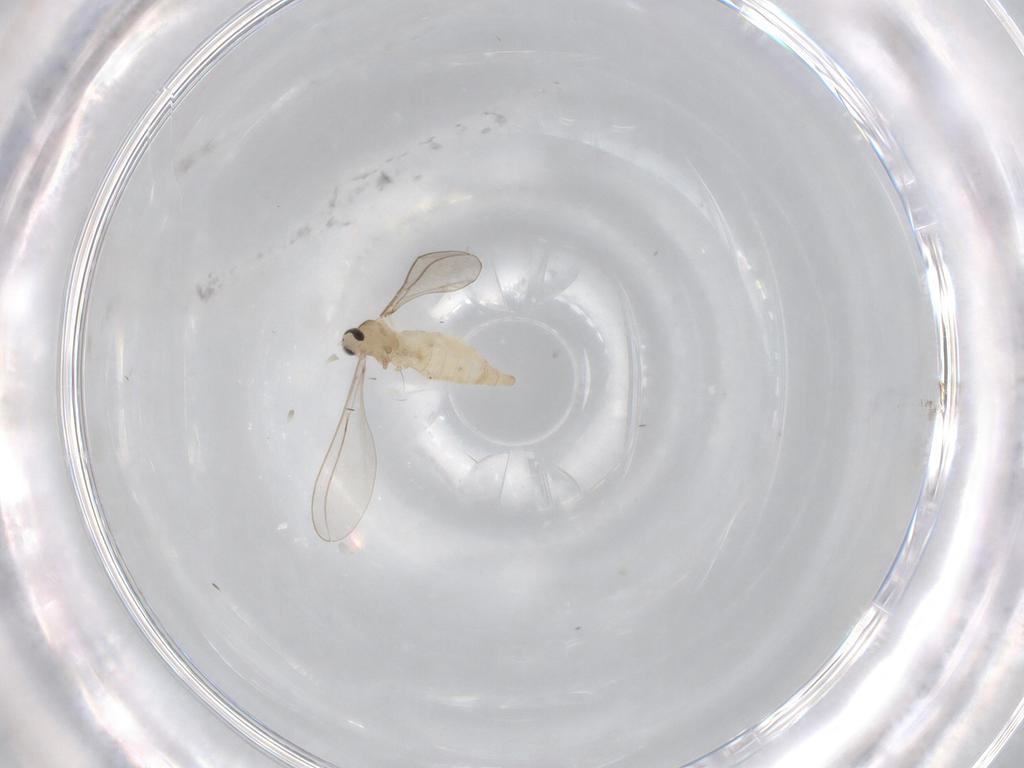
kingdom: Animalia
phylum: Arthropoda
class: Insecta
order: Diptera
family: Cecidomyiidae
